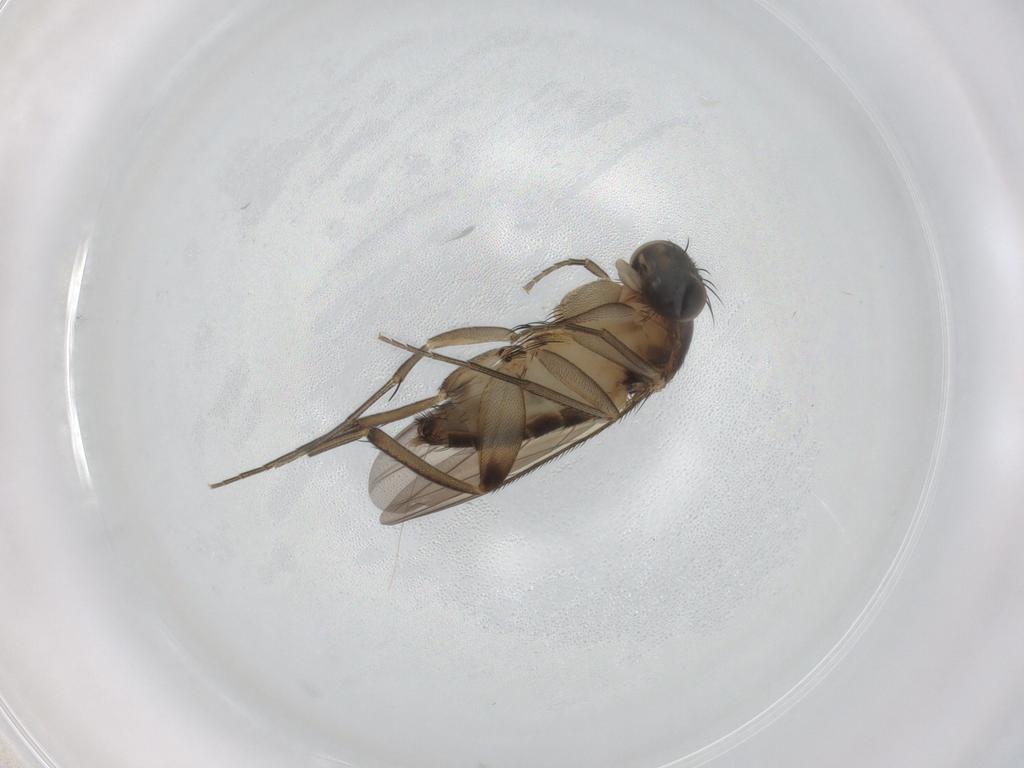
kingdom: Animalia
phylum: Arthropoda
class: Insecta
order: Diptera
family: Phoridae
